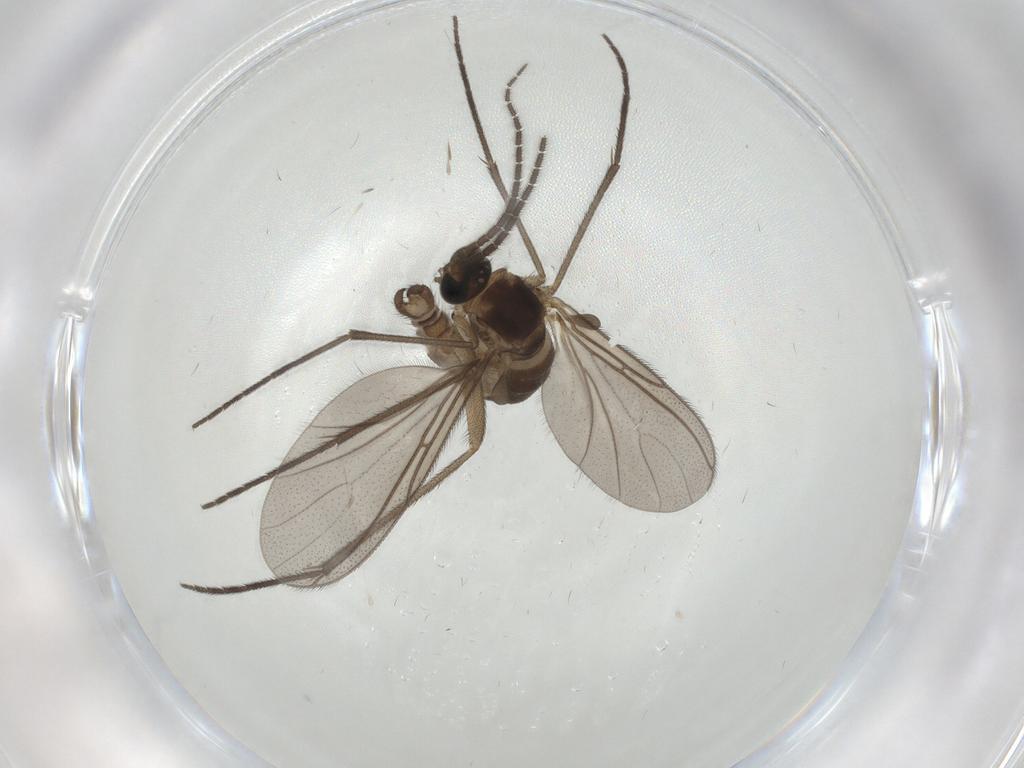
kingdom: Animalia
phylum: Arthropoda
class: Insecta
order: Diptera
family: Sciaridae
